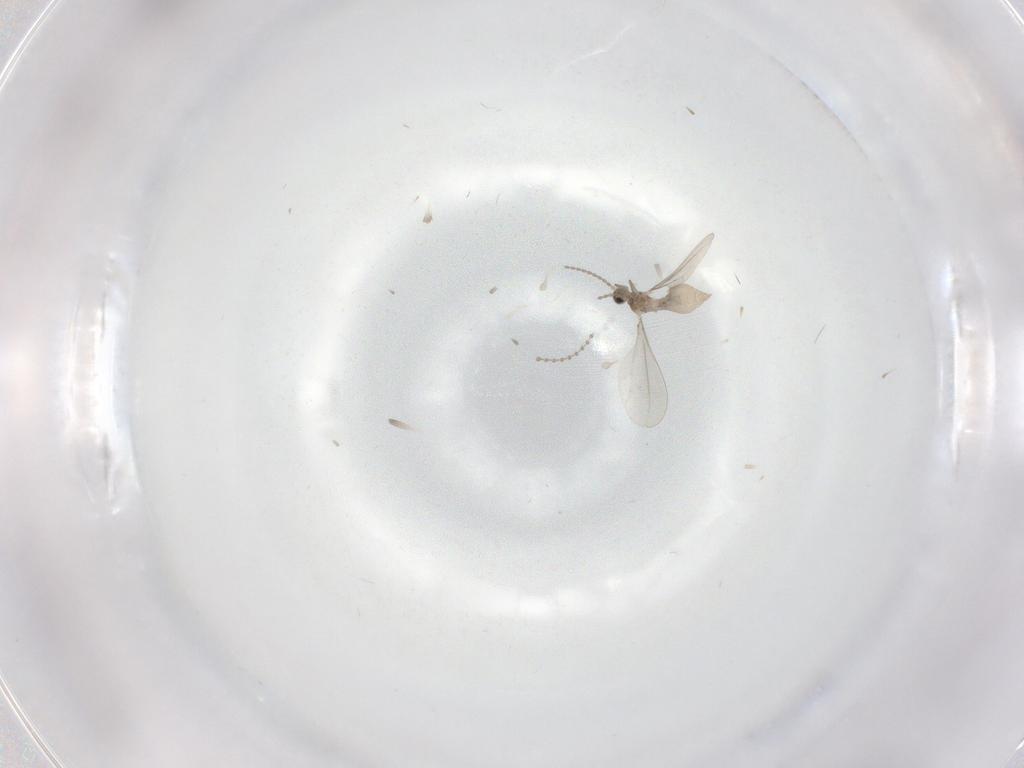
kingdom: Animalia
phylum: Arthropoda
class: Insecta
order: Diptera
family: Cecidomyiidae
